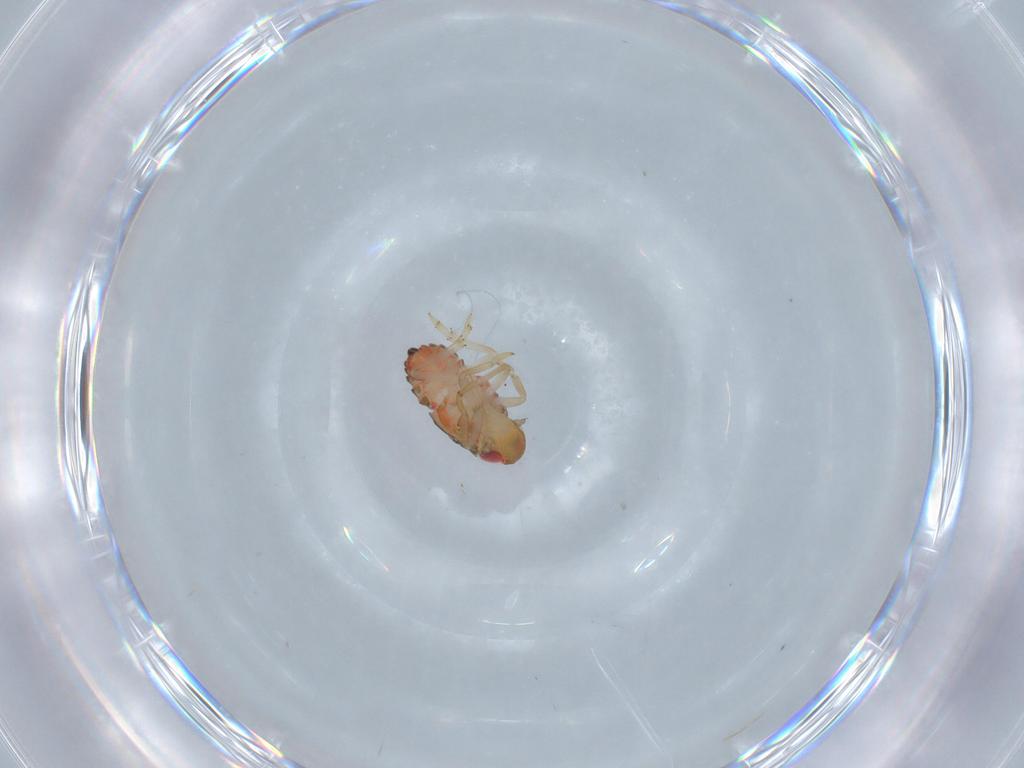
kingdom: Animalia
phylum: Arthropoda
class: Insecta
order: Hemiptera
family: Issidae
